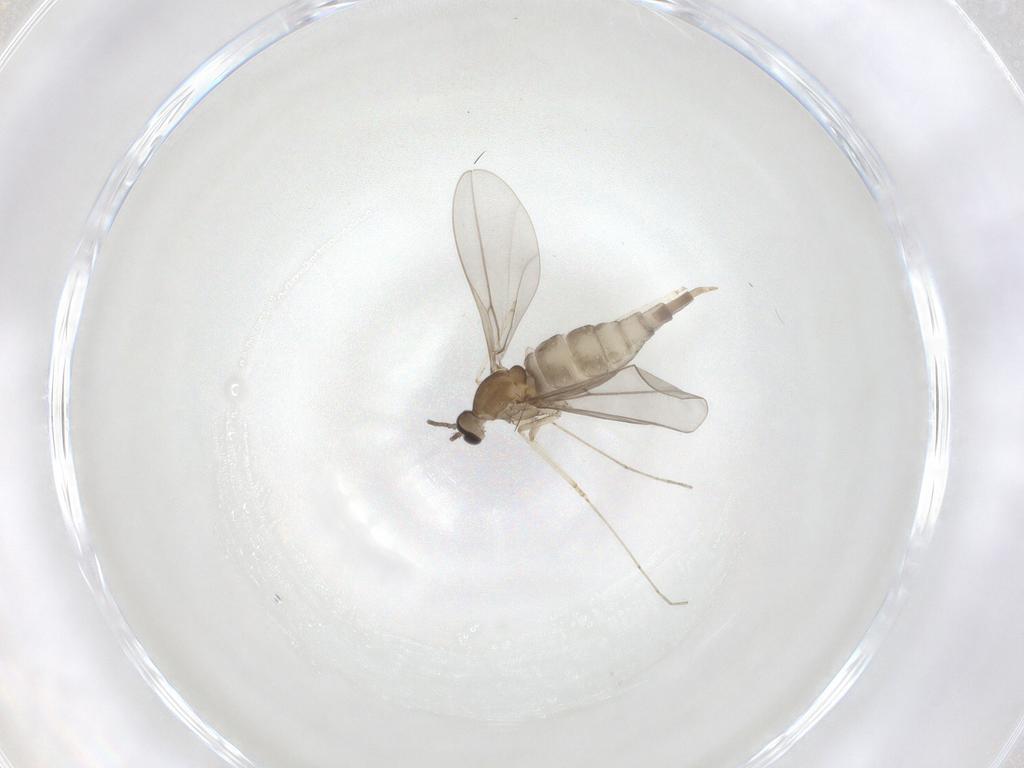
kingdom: Animalia
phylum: Arthropoda
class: Insecta
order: Diptera
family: Cecidomyiidae
